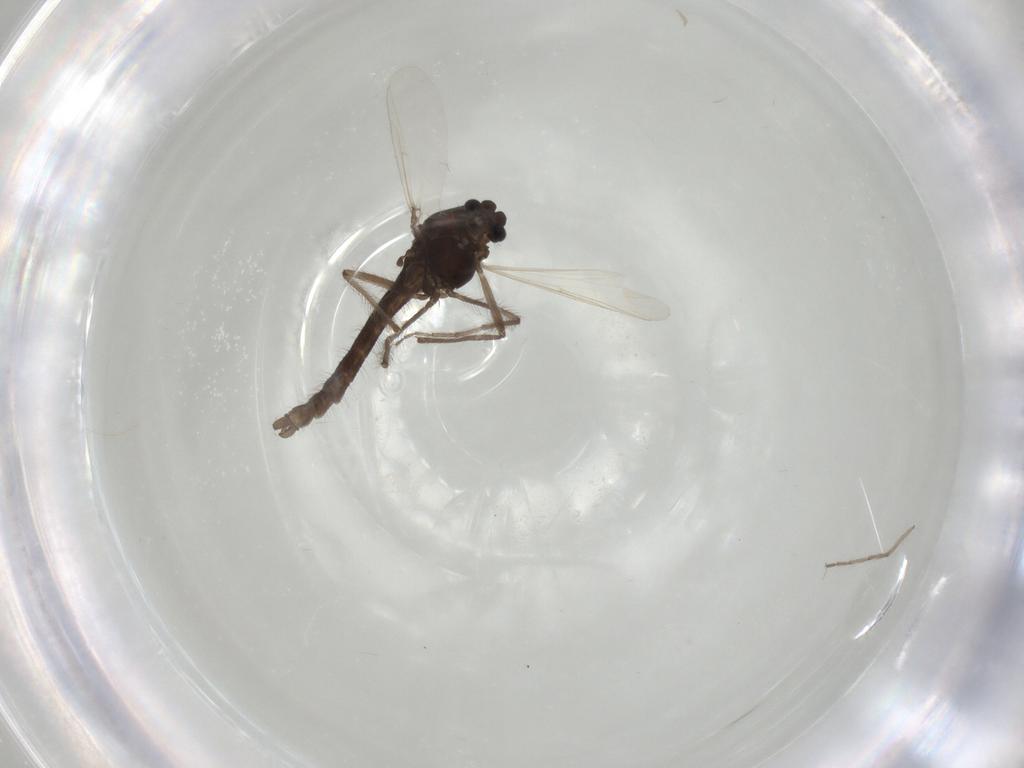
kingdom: Animalia
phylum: Arthropoda
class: Insecta
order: Diptera
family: Chironomidae
